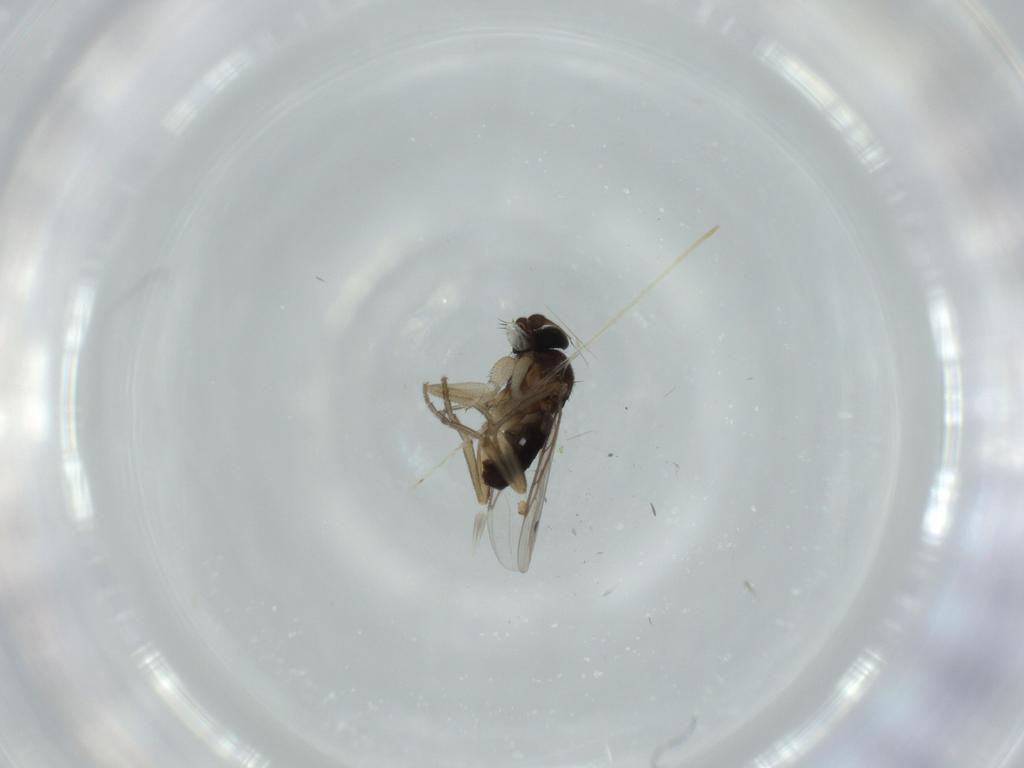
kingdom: Animalia
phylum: Arthropoda
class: Insecta
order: Diptera
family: Phoridae
